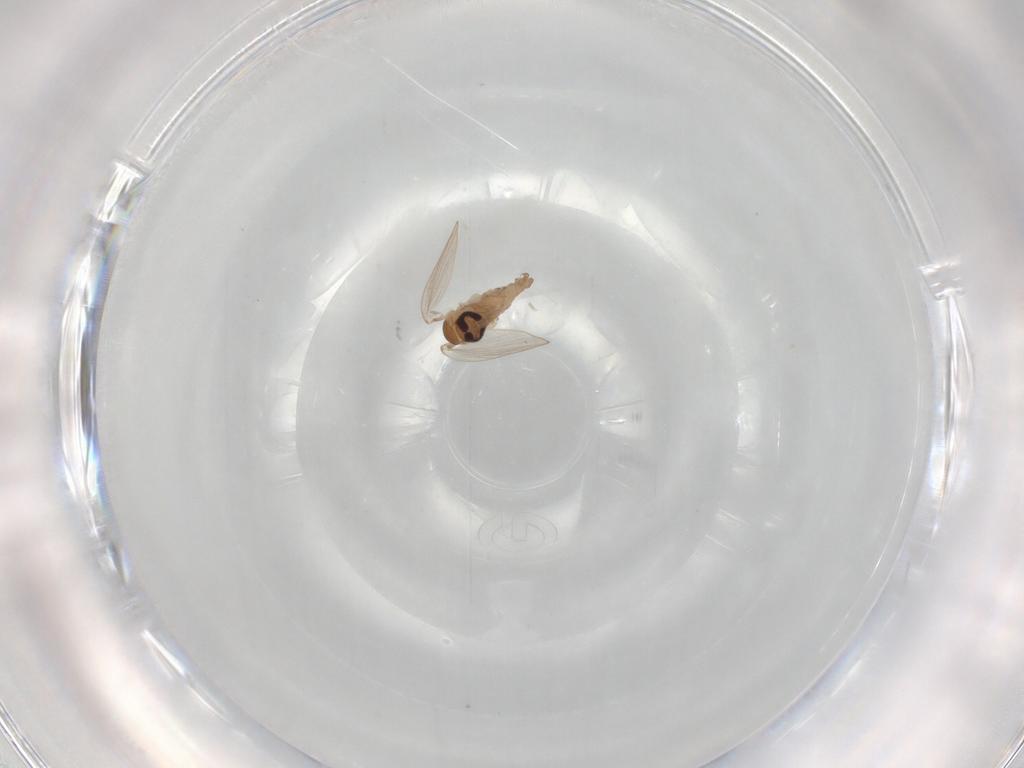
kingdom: Animalia
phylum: Arthropoda
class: Insecta
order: Diptera
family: Psychodidae
